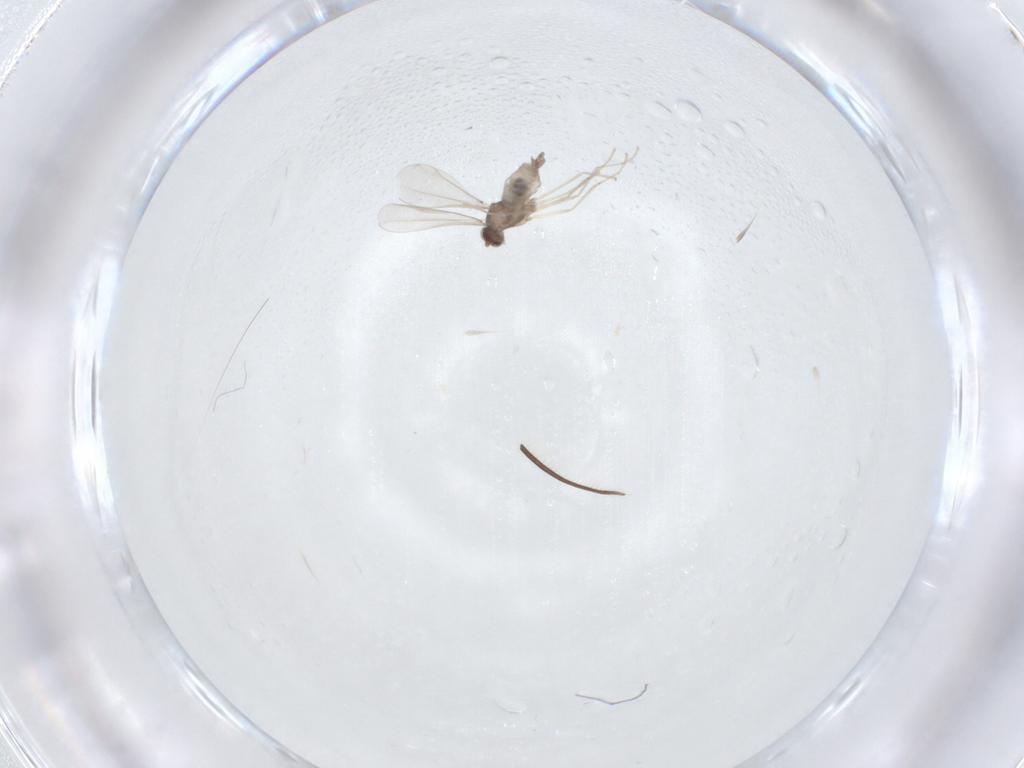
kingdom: Animalia
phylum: Arthropoda
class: Insecta
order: Diptera
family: Cecidomyiidae
